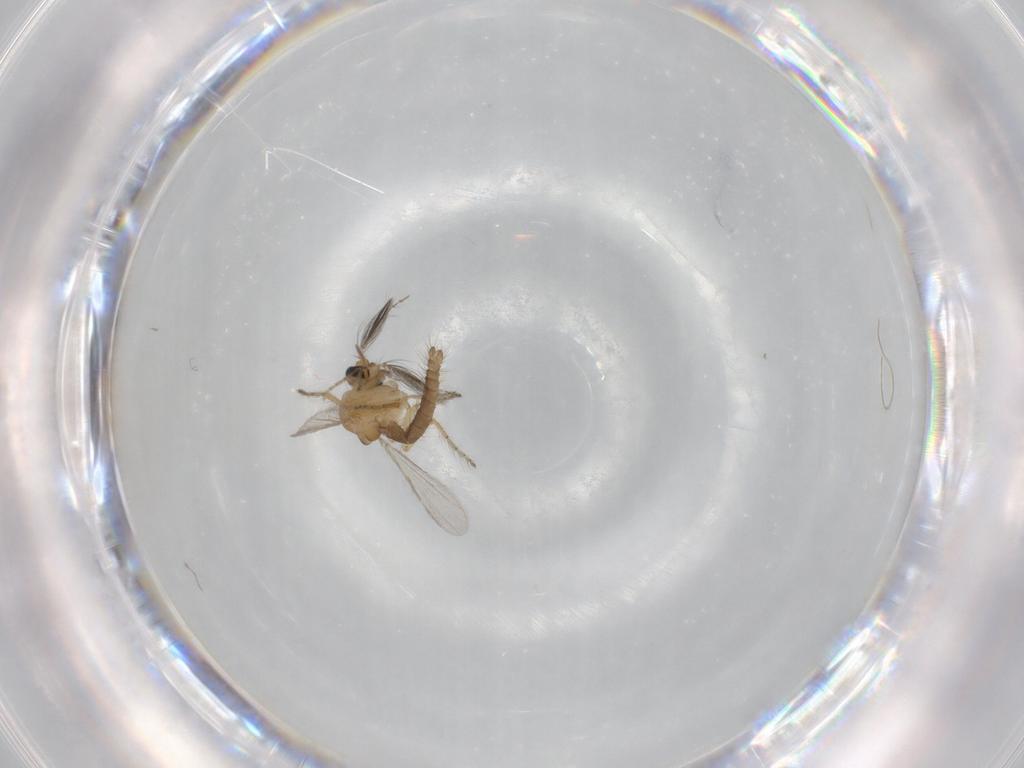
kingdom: Animalia
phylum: Arthropoda
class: Insecta
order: Diptera
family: Ceratopogonidae
